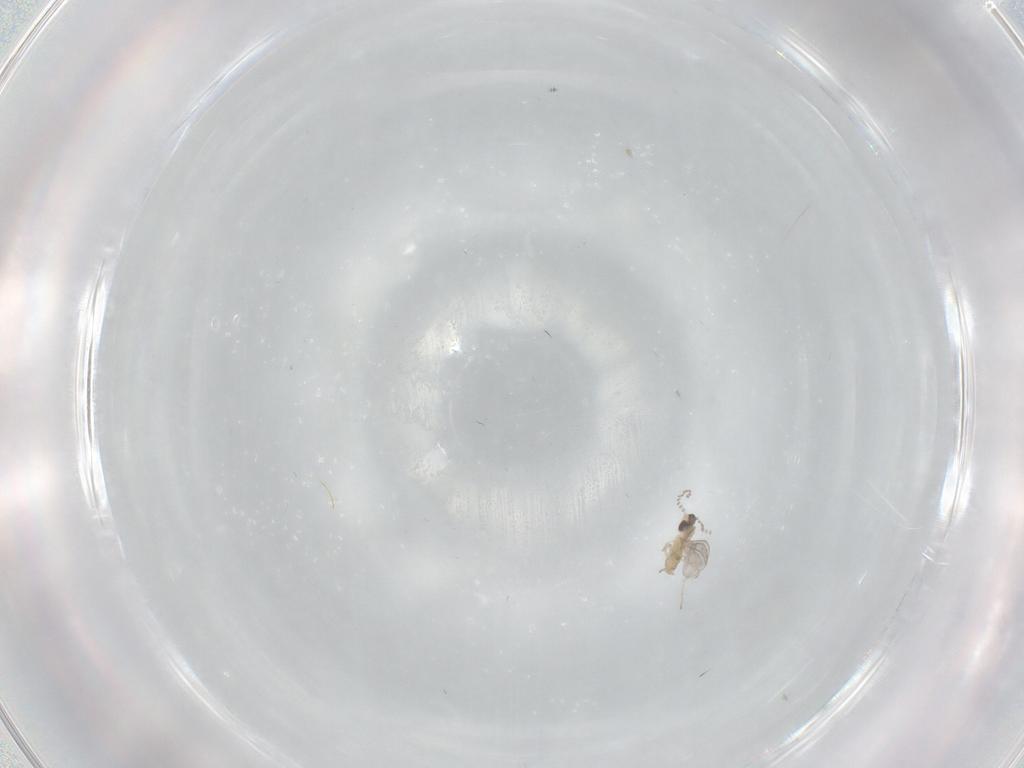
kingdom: Animalia
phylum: Arthropoda
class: Insecta
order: Diptera
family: Cecidomyiidae
